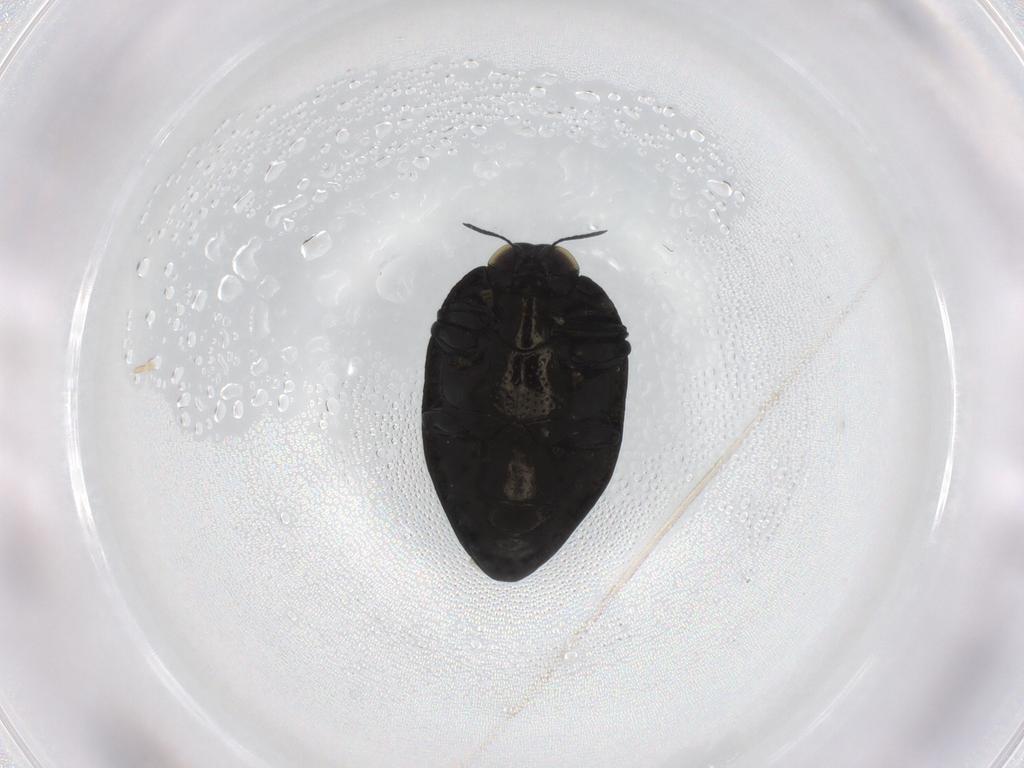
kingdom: Animalia
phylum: Arthropoda
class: Insecta
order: Coleoptera
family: Buprestidae
